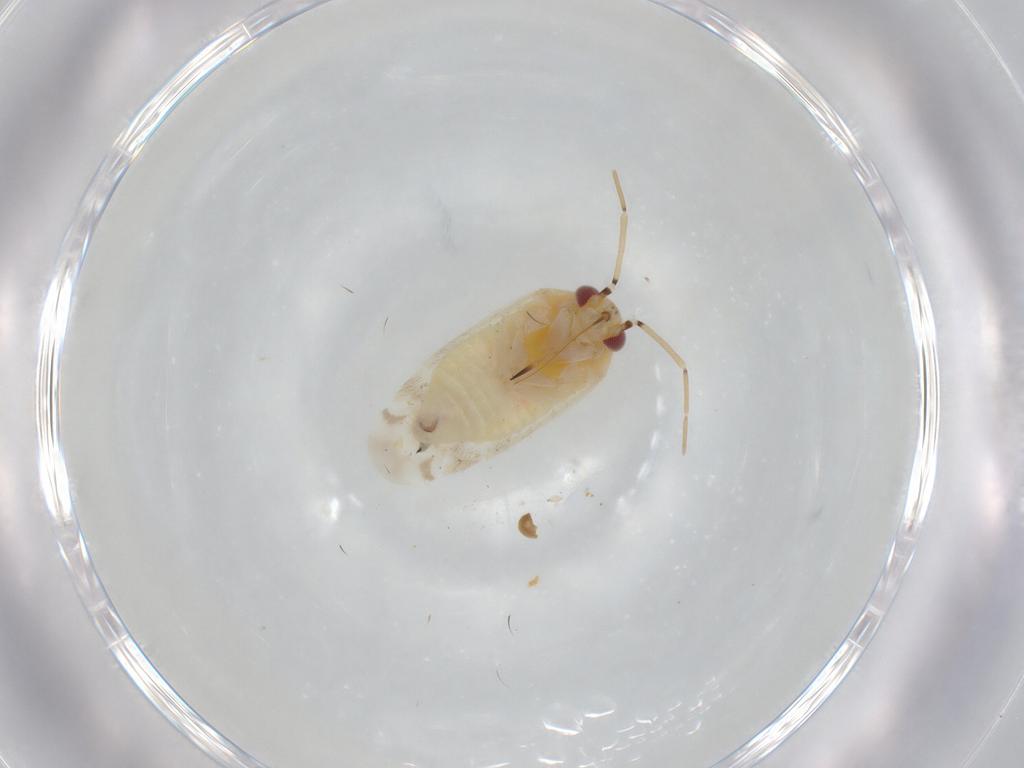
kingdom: Animalia
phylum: Arthropoda
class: Insecta
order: Hemiptera
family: Miridae
